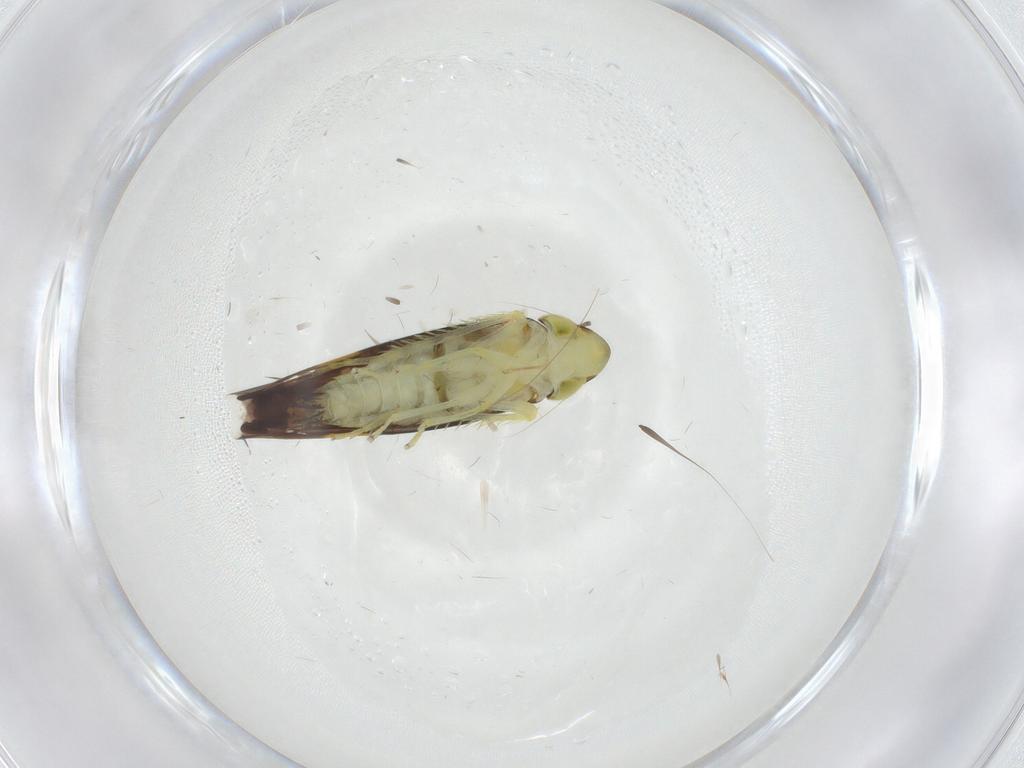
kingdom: Animalia
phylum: Arthropoda
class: Insecta
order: Hemiptera
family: Cicadellidae
